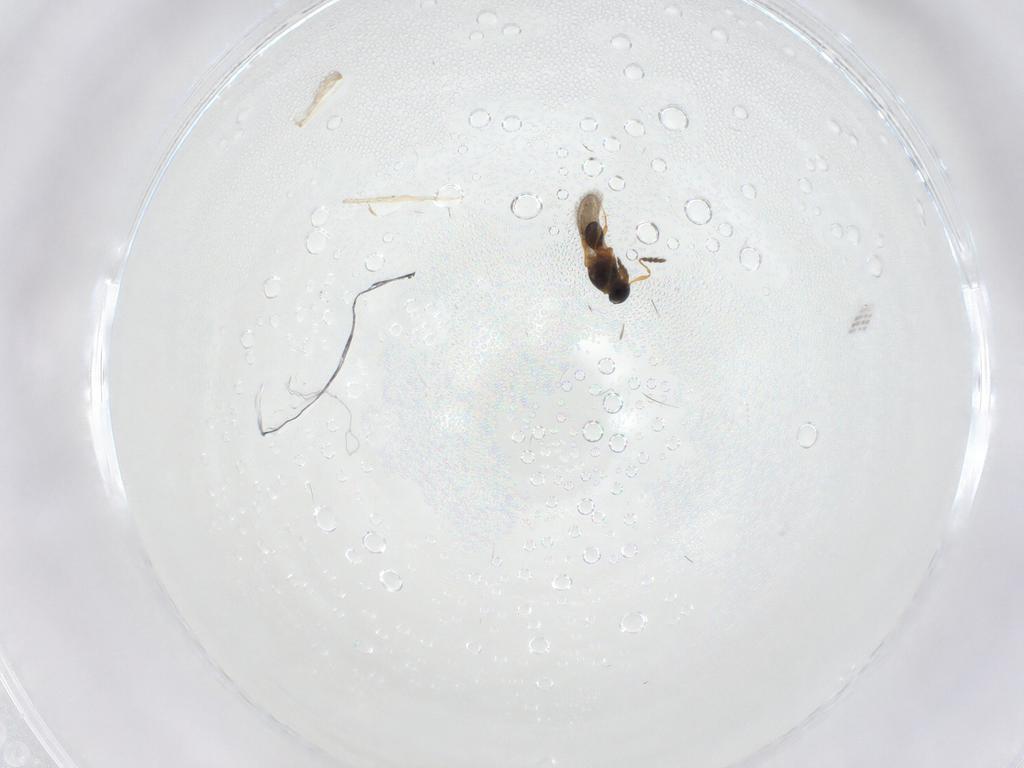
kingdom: Animalia
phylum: Arthropoda
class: Insecta
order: Diptera
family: Chironomidae
